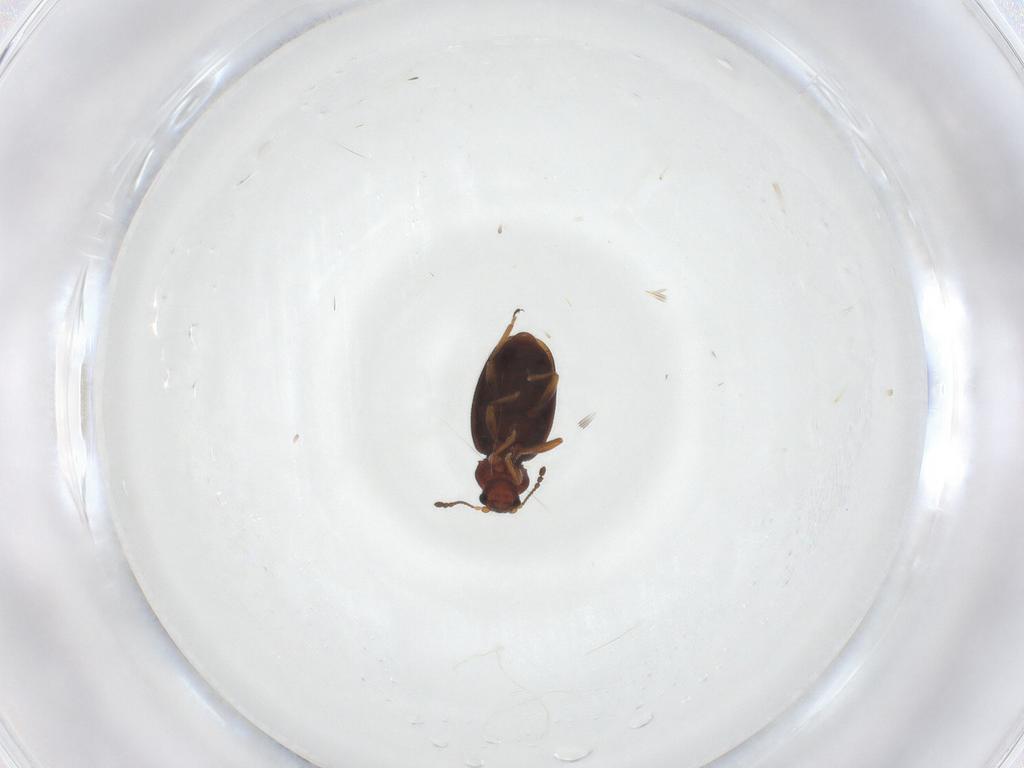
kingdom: Animalia
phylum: Arthropoda
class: Insecta
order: Coleoptera
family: Latridiidae
